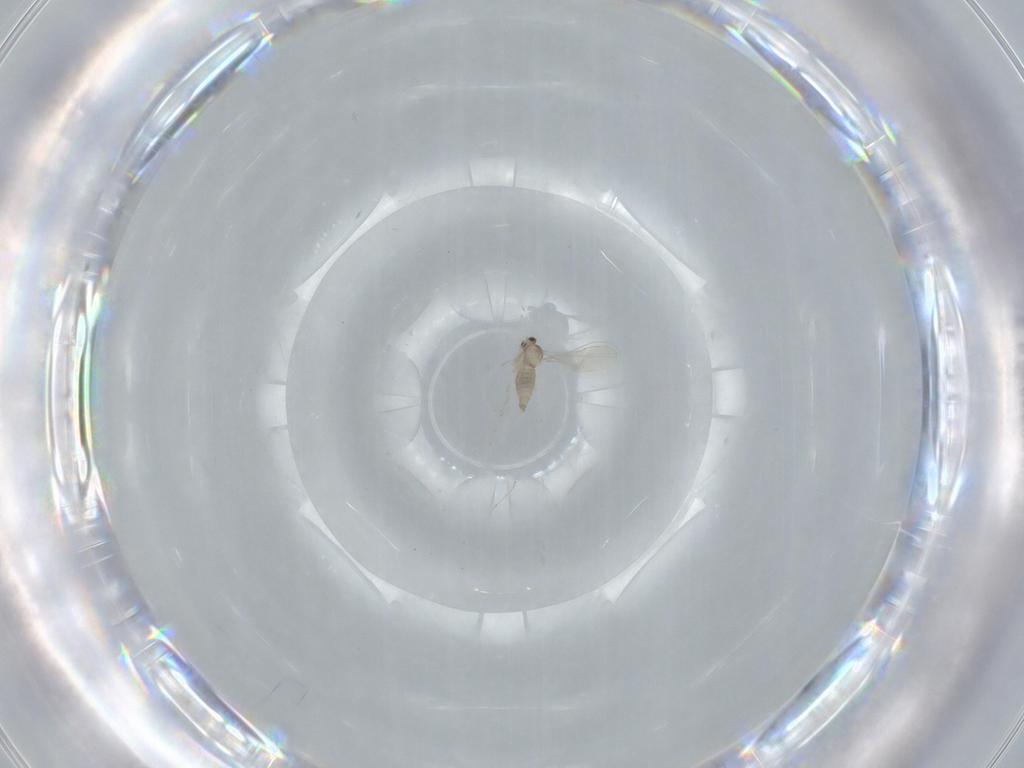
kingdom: Animalia
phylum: Arthropoda
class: Insecta
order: Diptera
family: Cecidomyiidae
